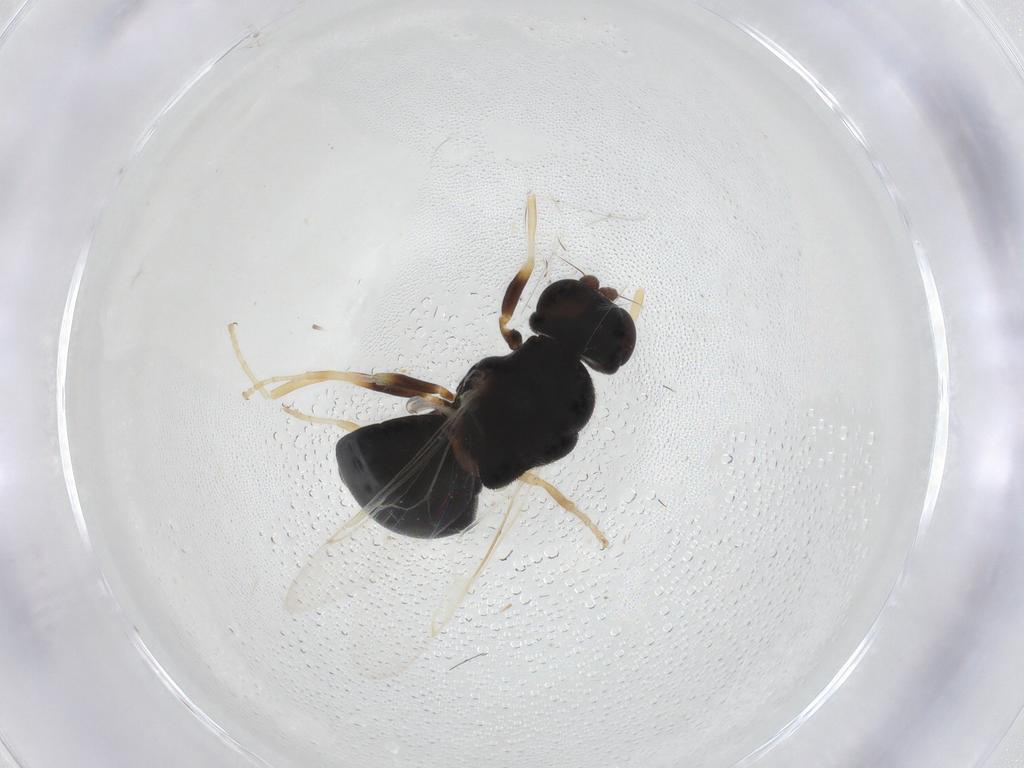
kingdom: Animalia
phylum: Arthropoda
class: Insecta
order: Diptera
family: Stratiomyidae
